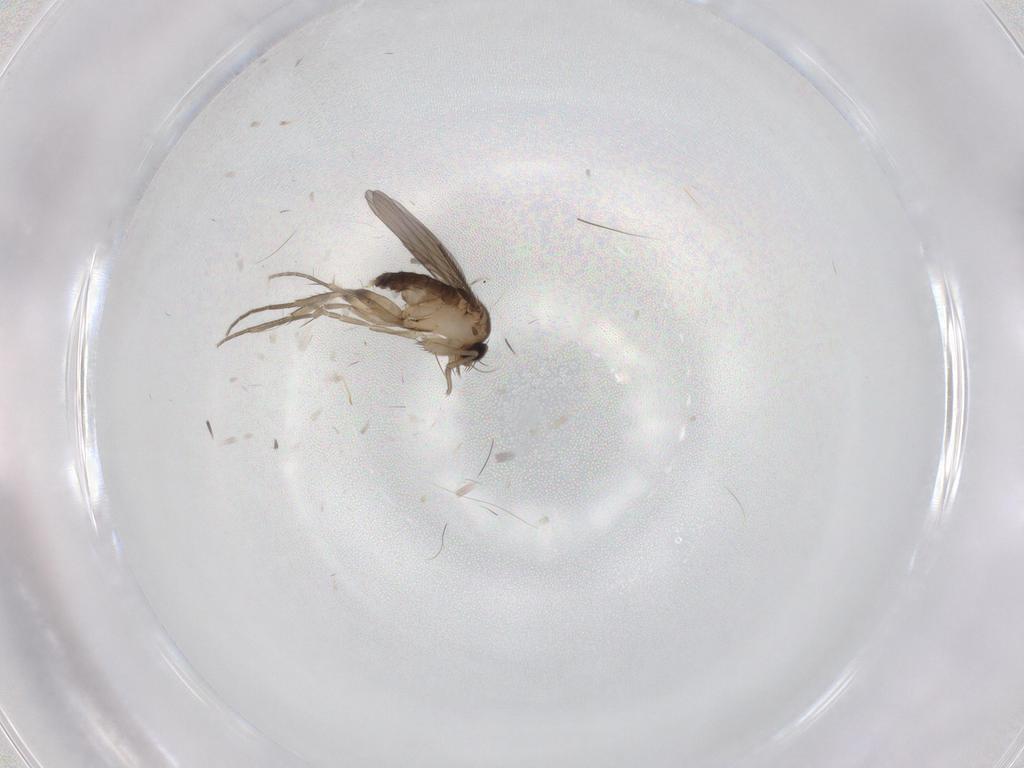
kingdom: Animalia
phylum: Arthropoda
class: Insecta
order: Diptera
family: Phoridae
